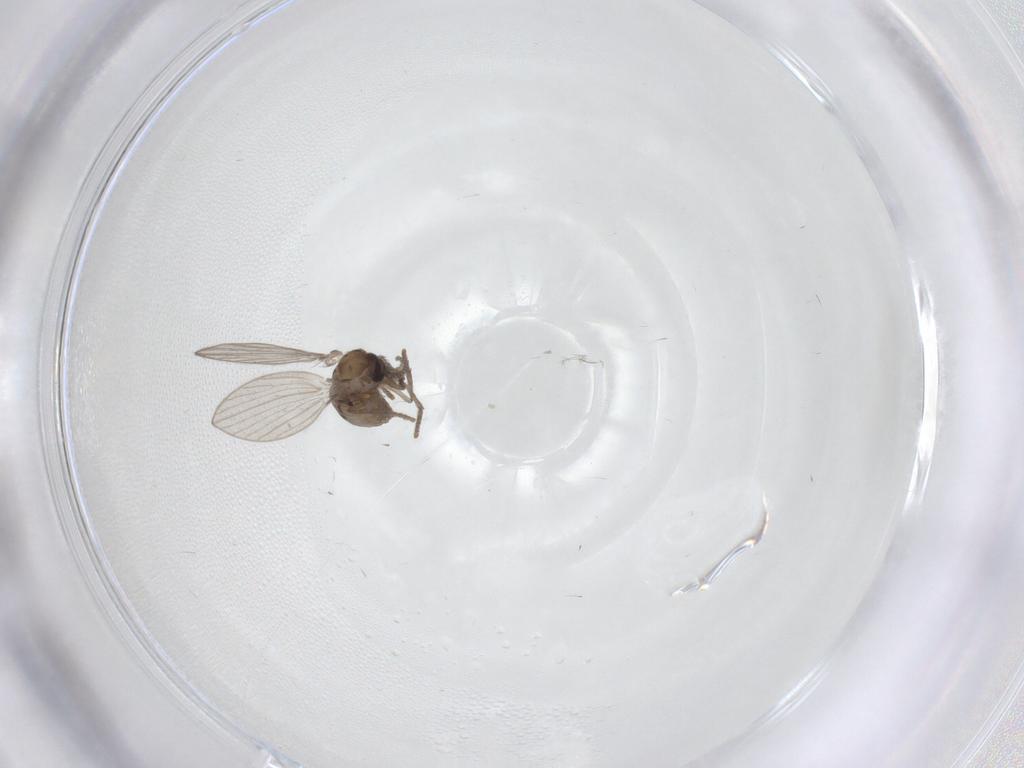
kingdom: Animalia
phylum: Arthropoda
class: Insecta
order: Diptera
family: Psychodidae
